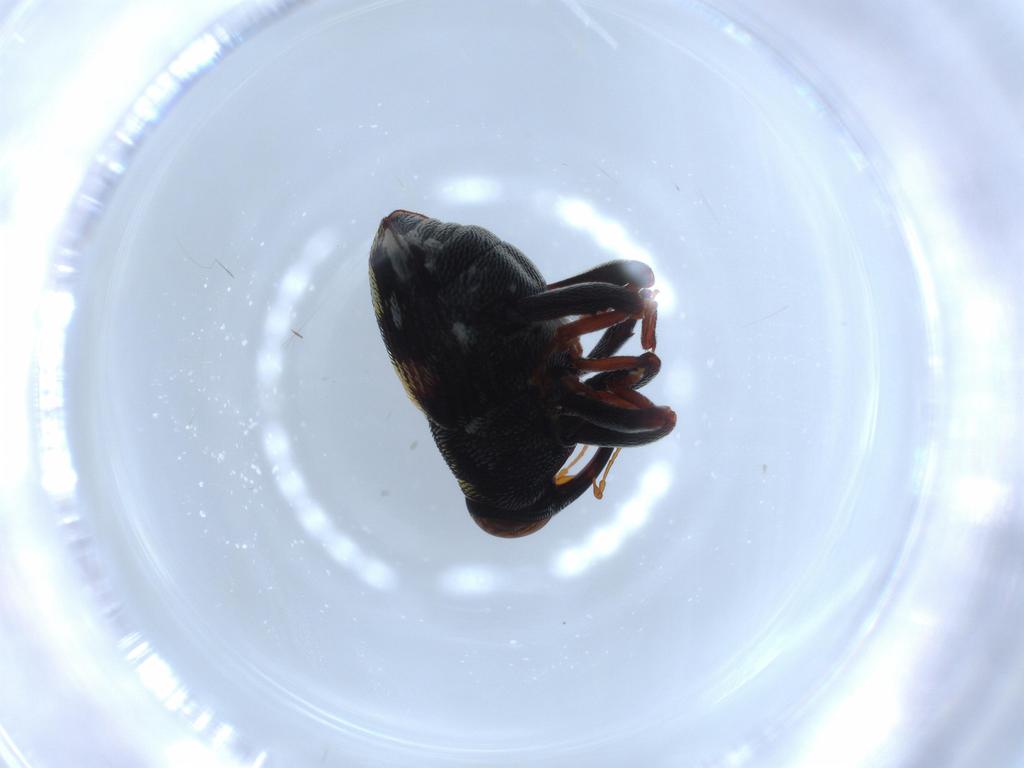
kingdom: Animalia
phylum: Arthropoda
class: Insecta
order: Coleoptera
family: Curculionidae
